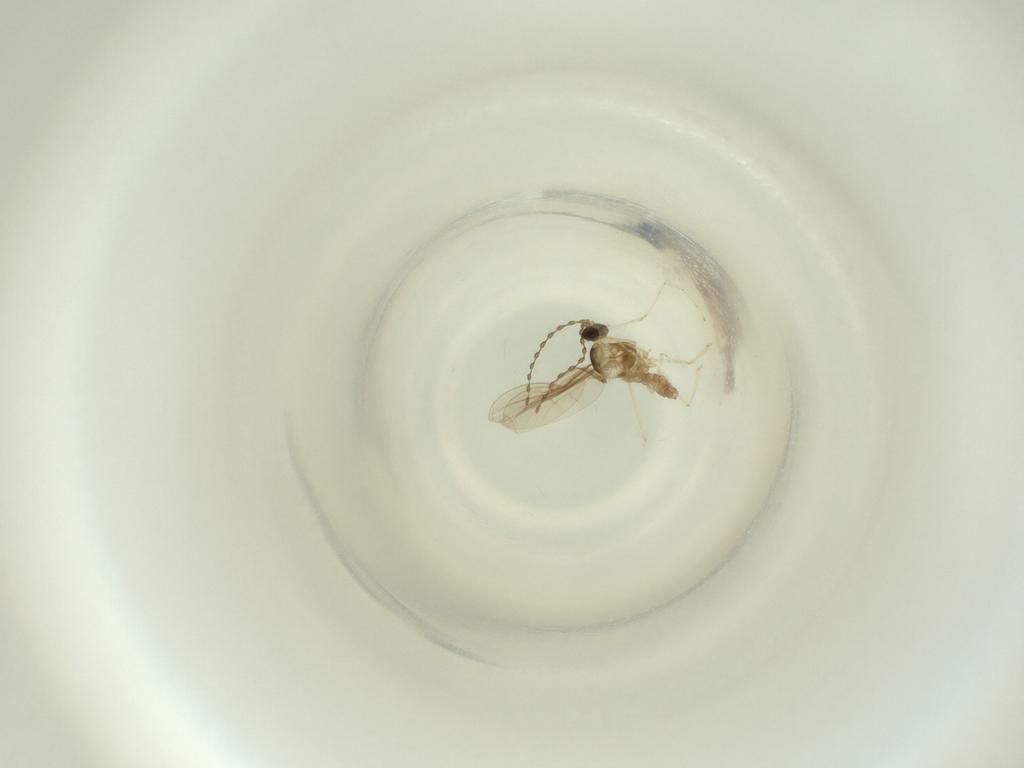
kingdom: Animalia
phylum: Arthropoda
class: Insecta
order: Diptera
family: Cecidomyiidae
